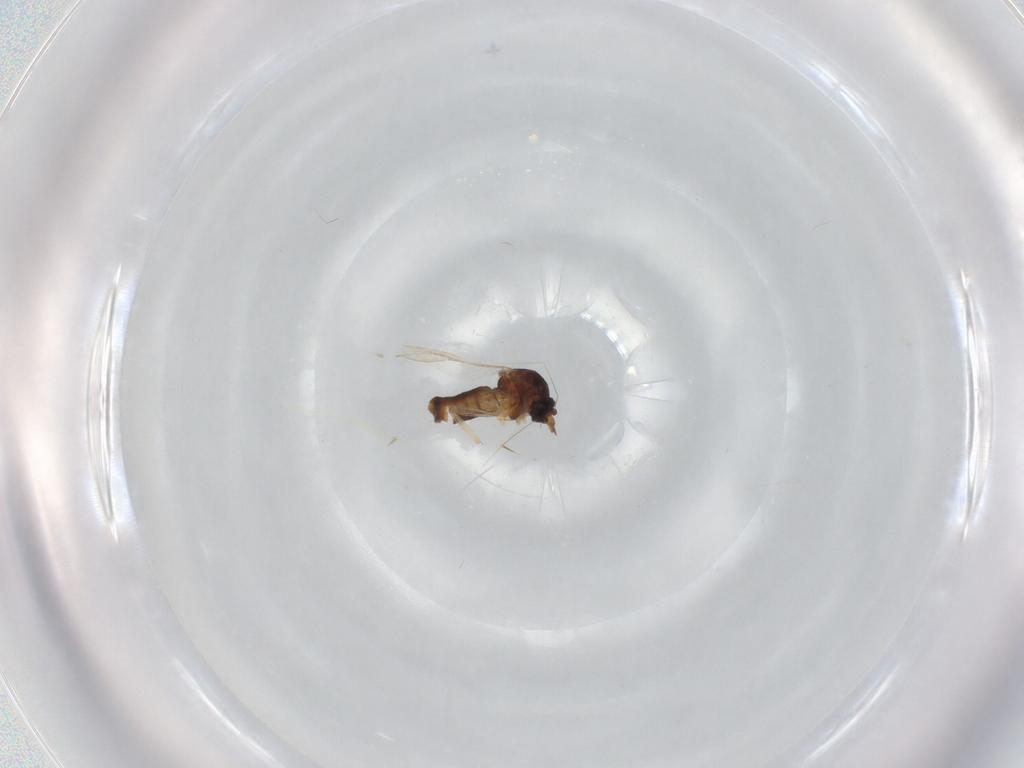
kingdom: Animalia
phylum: Arthropoda
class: Insecta
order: Diptera
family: Ceratopogonidae
